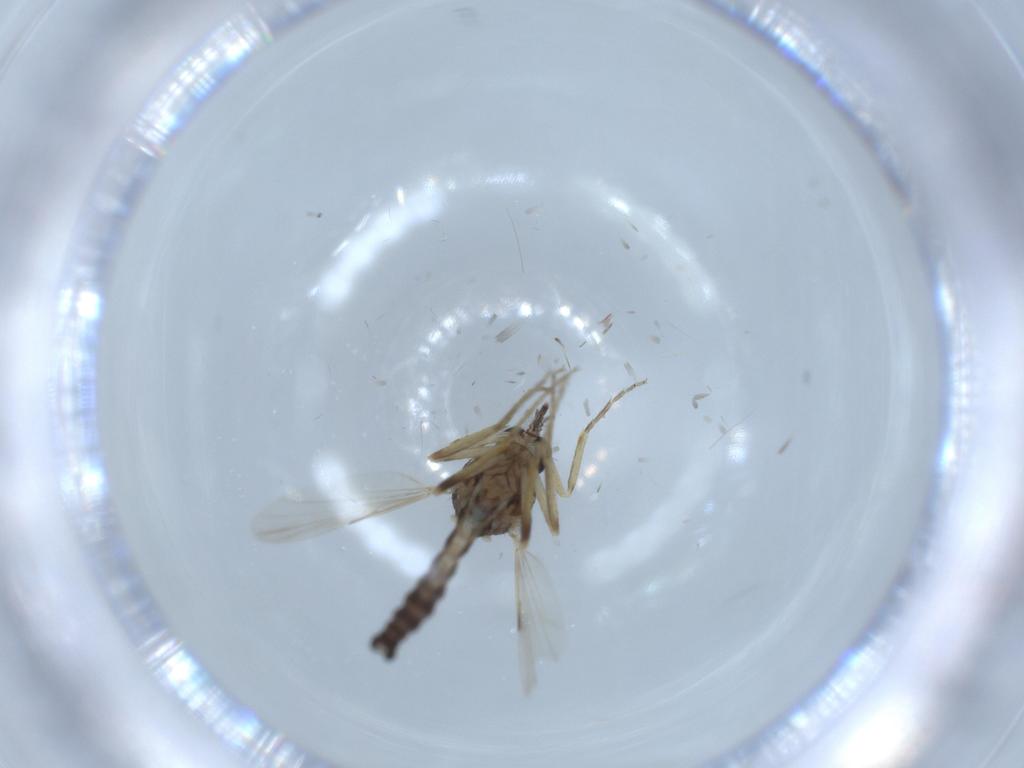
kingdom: Animalia
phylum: Arthropoda
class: Insecta
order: Diptera
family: Ceratopogonidae
